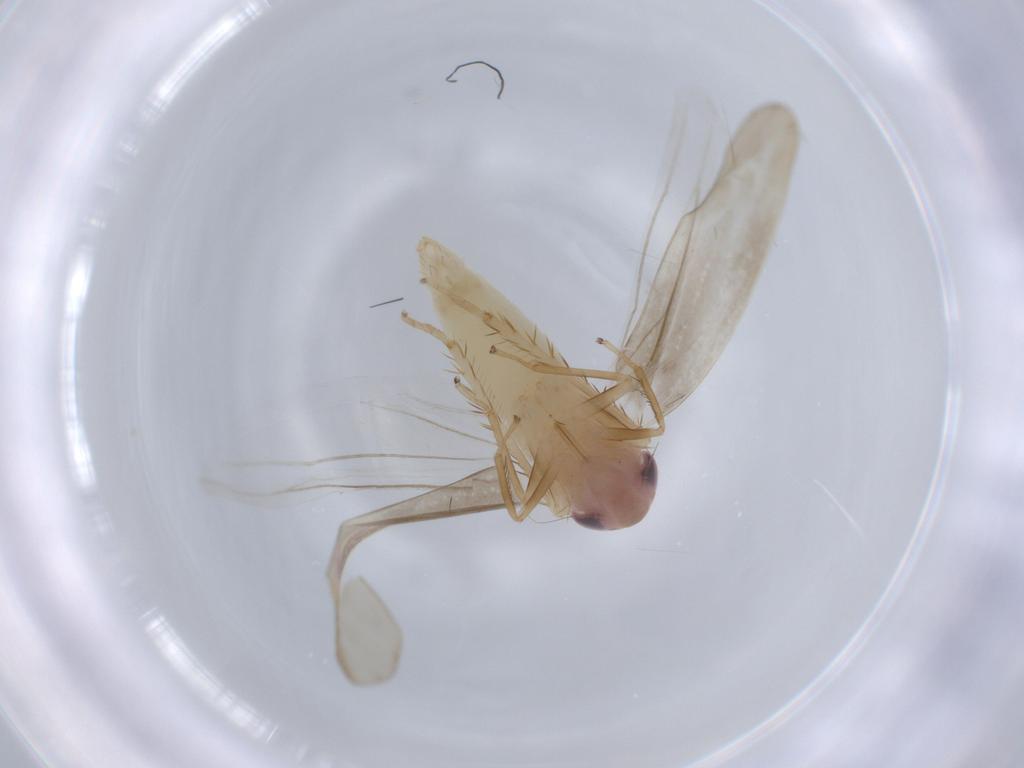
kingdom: Animalia
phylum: Arthropoda
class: Insecta
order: Hemiptera
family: Cicadellidae
